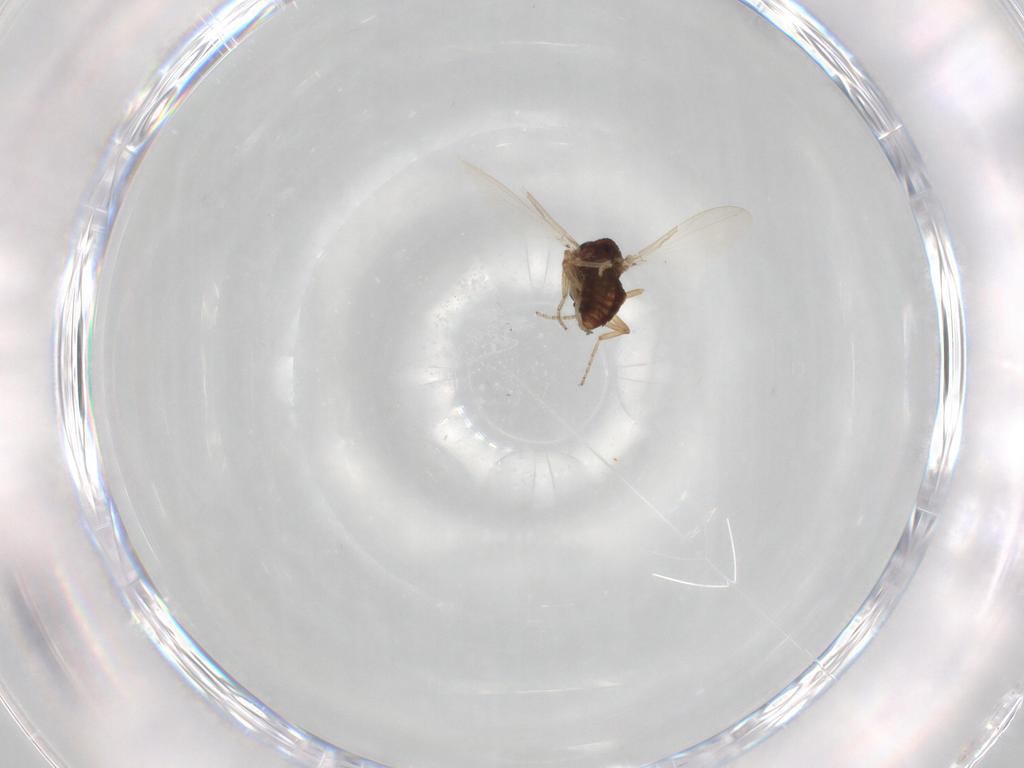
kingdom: Animalia
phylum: Arthropoda
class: Insecta
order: Diptera
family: Ceratopogonidae
